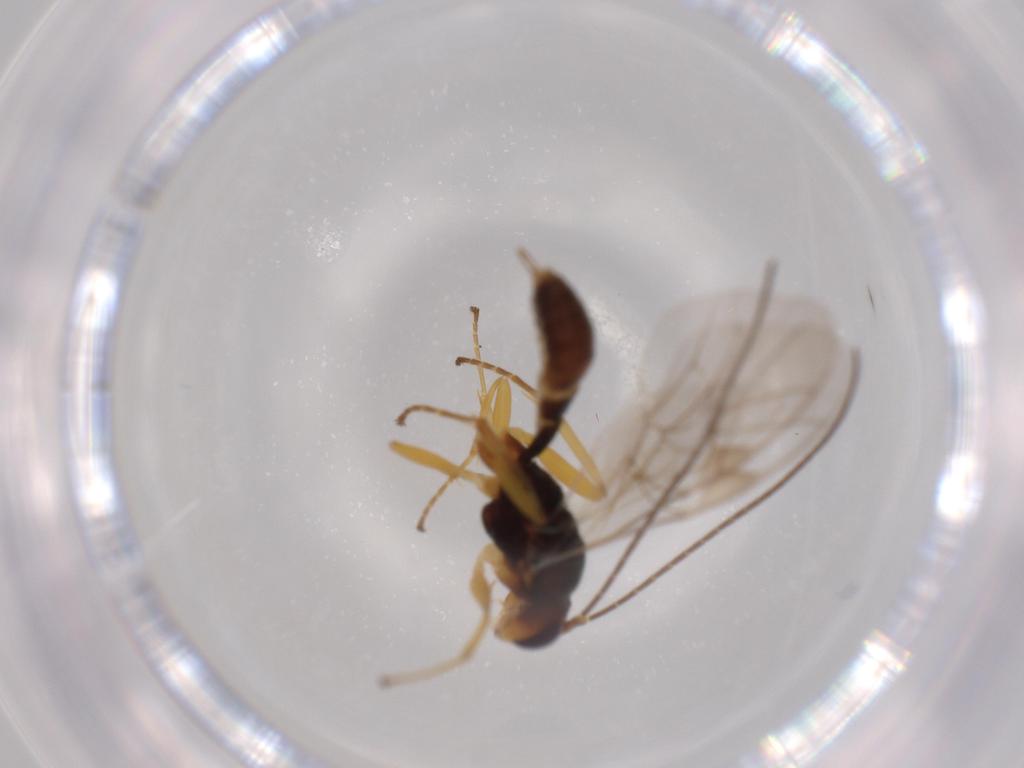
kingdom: Animalia
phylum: Arthropoda
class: Insecta
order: Hymenoptera
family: Ichneumonidae
